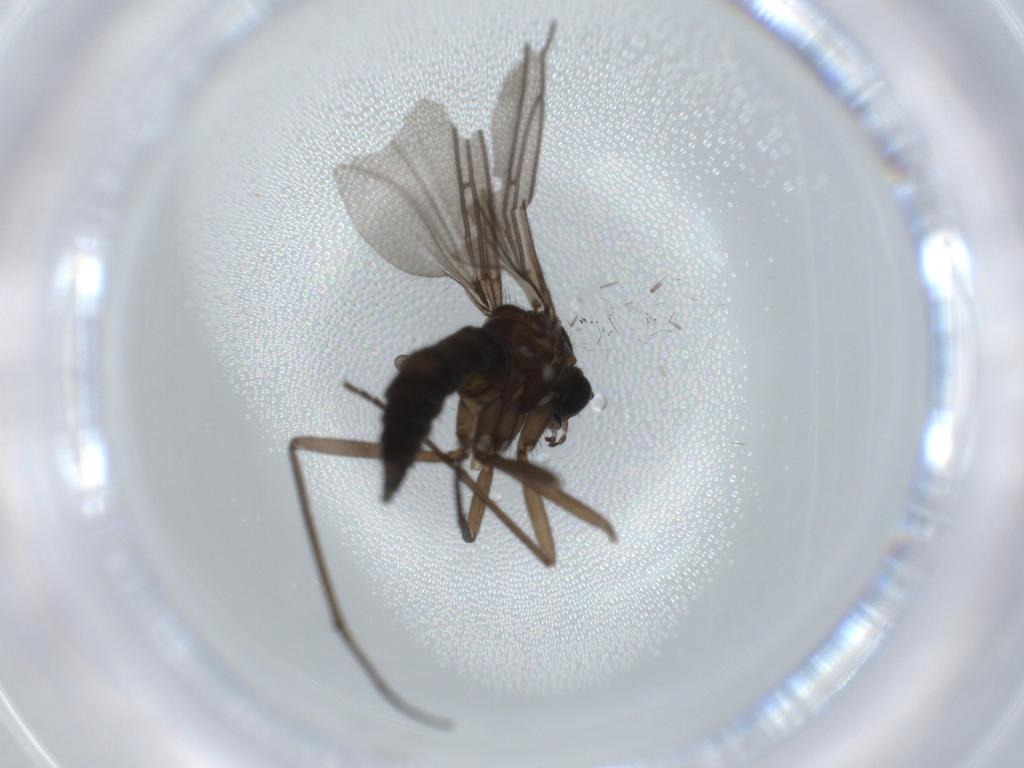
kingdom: Animalia
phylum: Arthropoda
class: Insecta
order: Diptera
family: Sciaridae
